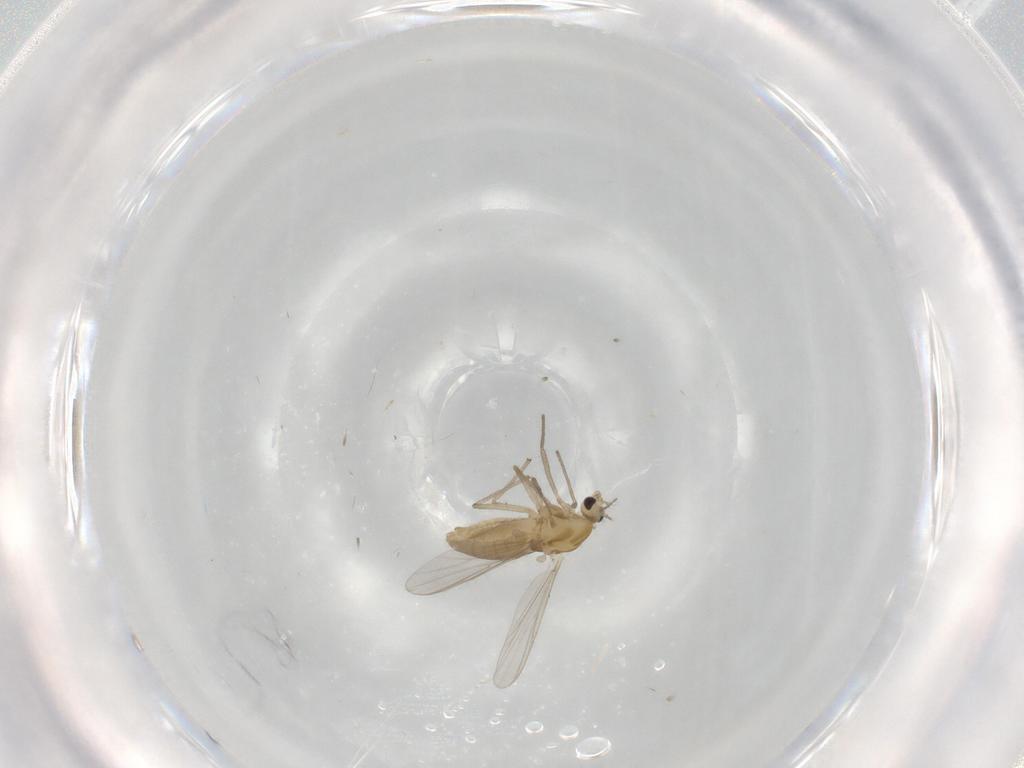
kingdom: Animalia
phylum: Arthropoda
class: Insecta
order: Diptera
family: Chironomidae
